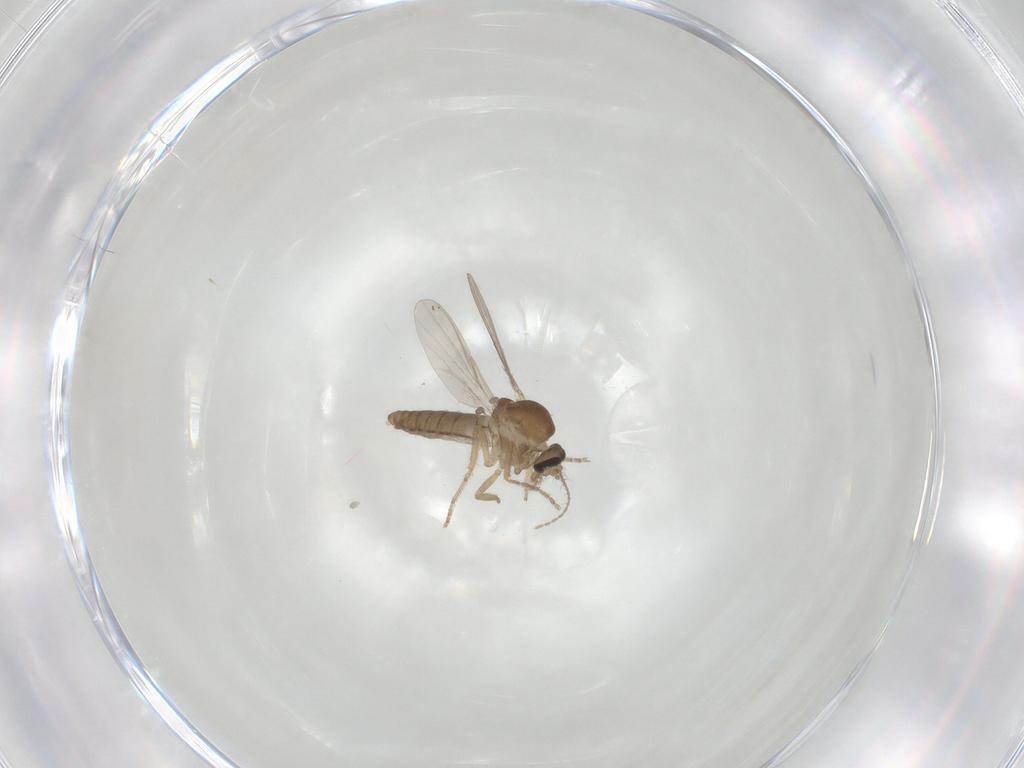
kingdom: Animalia
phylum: Arthropoda
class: Insecta
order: Diptera
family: Ceratopogonidae
